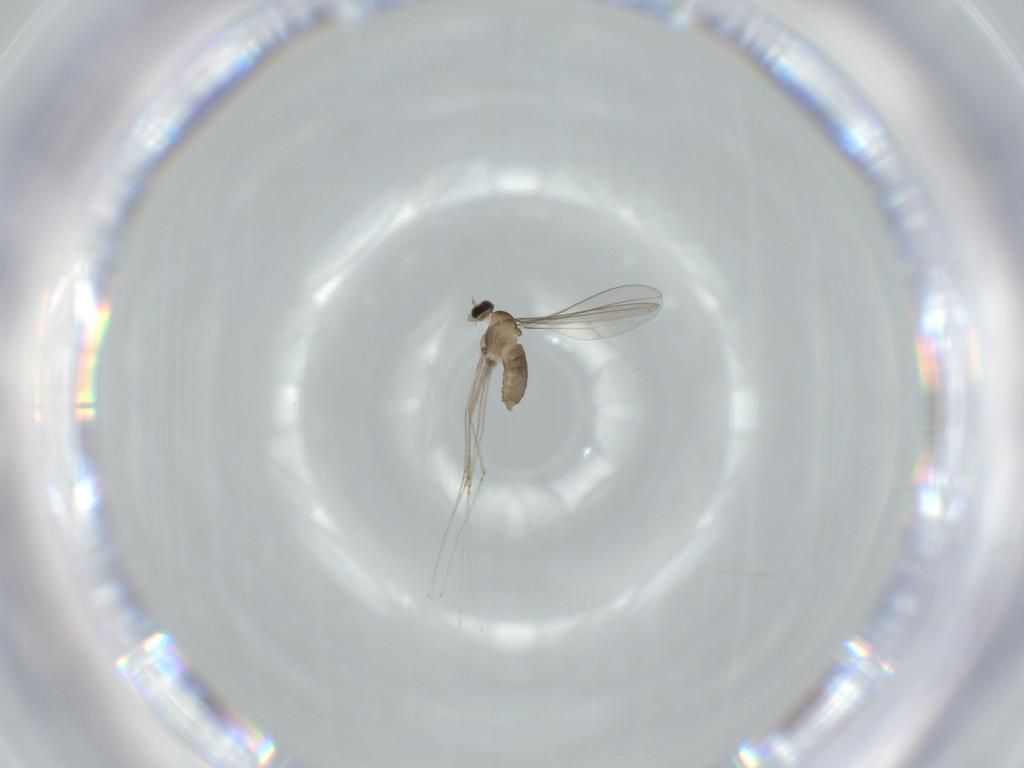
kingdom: Animalia
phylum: Arthropoda
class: Insecta
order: Diptera
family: Cecidomyiidae
